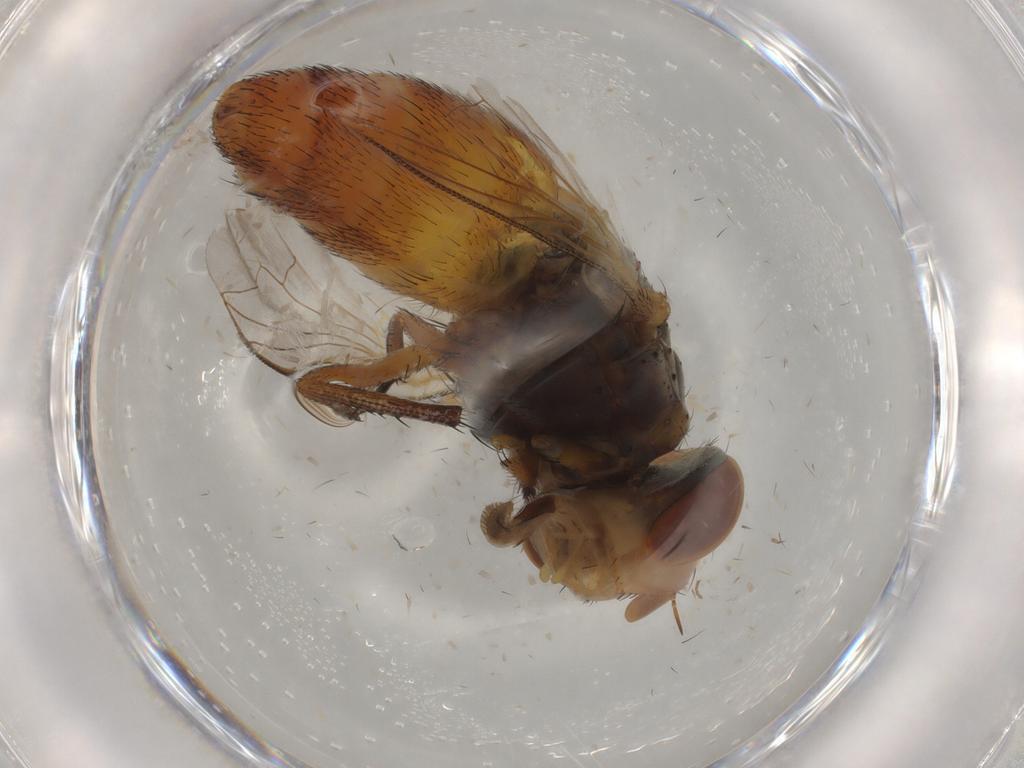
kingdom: Animalia
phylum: Arthropoda
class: Insecta
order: Diptera
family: Sarcophagidae
